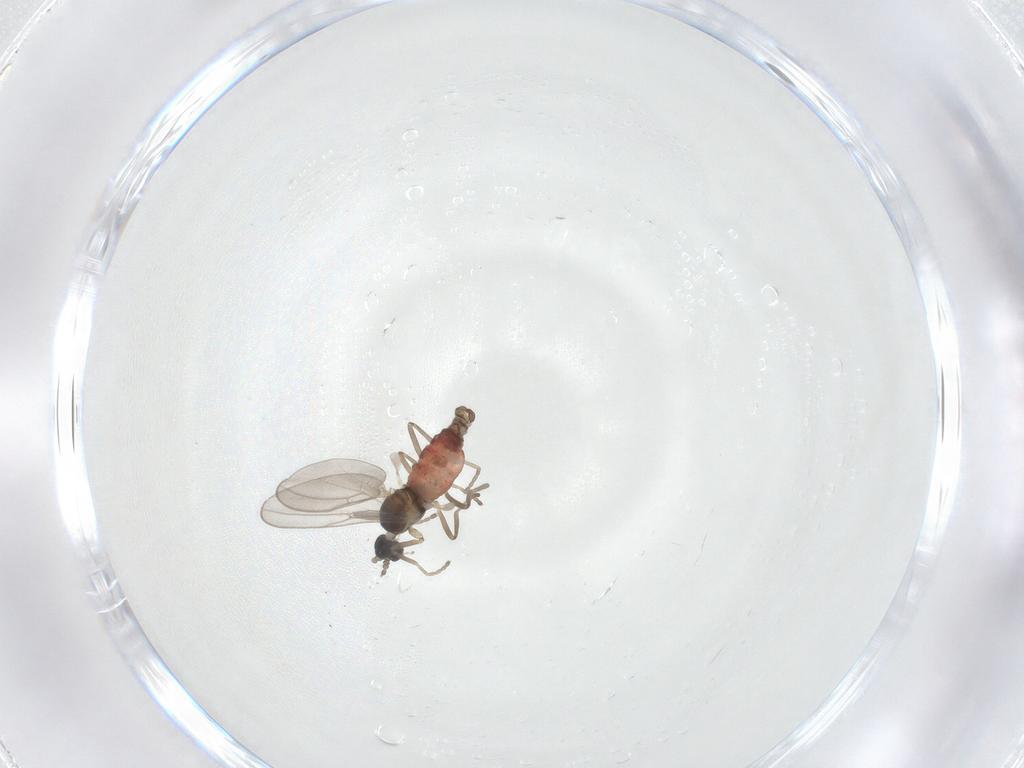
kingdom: Animalia
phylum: Arthropoda
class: Insecta
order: Diptera
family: Cecidomyiidae
